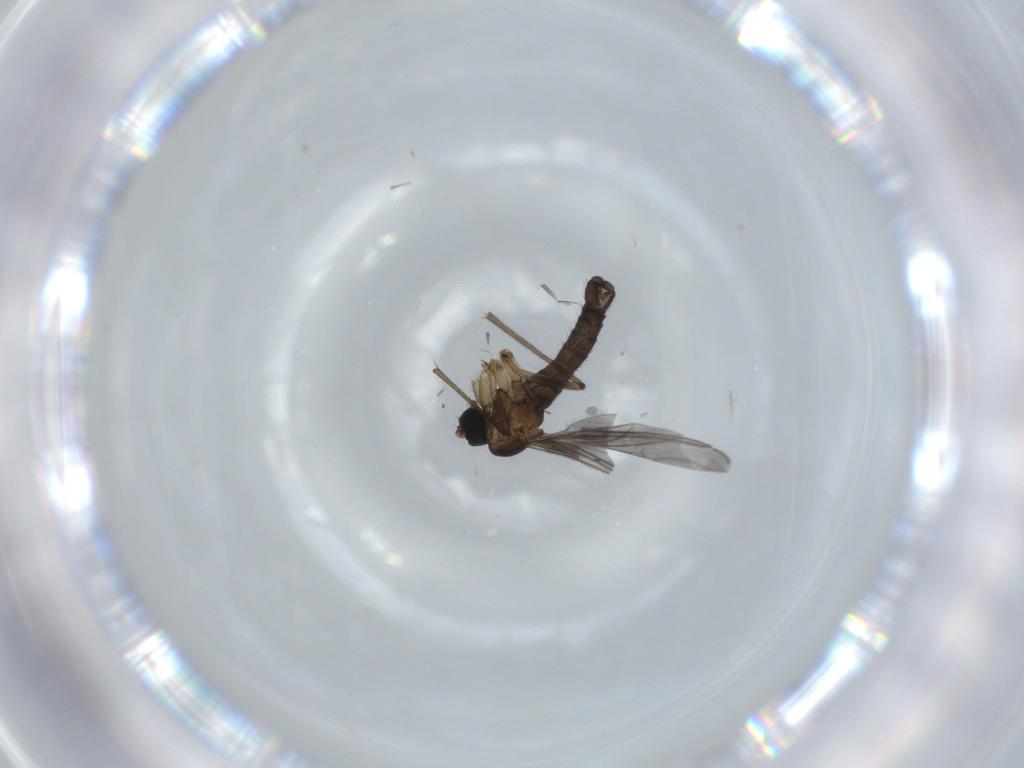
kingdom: Animalia
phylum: Arthropoda
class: Insecta
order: Diptera
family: Sciaridae
